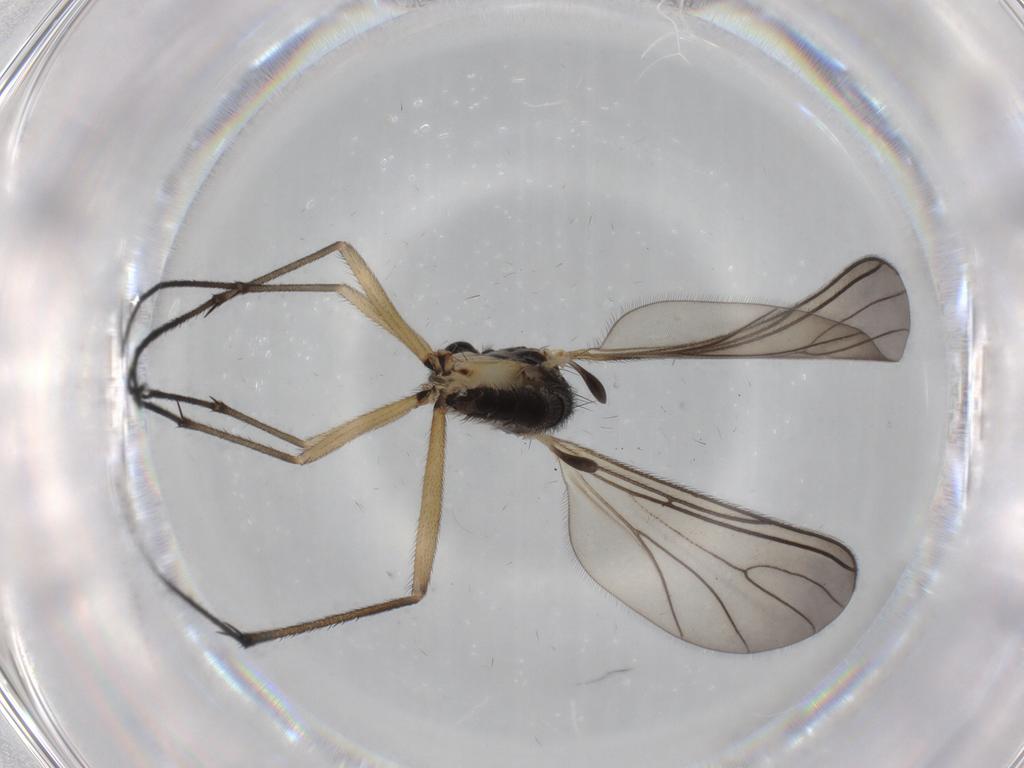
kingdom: Animalia
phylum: Arthropoda
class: Insecta
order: Diptera
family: Sciaridae
